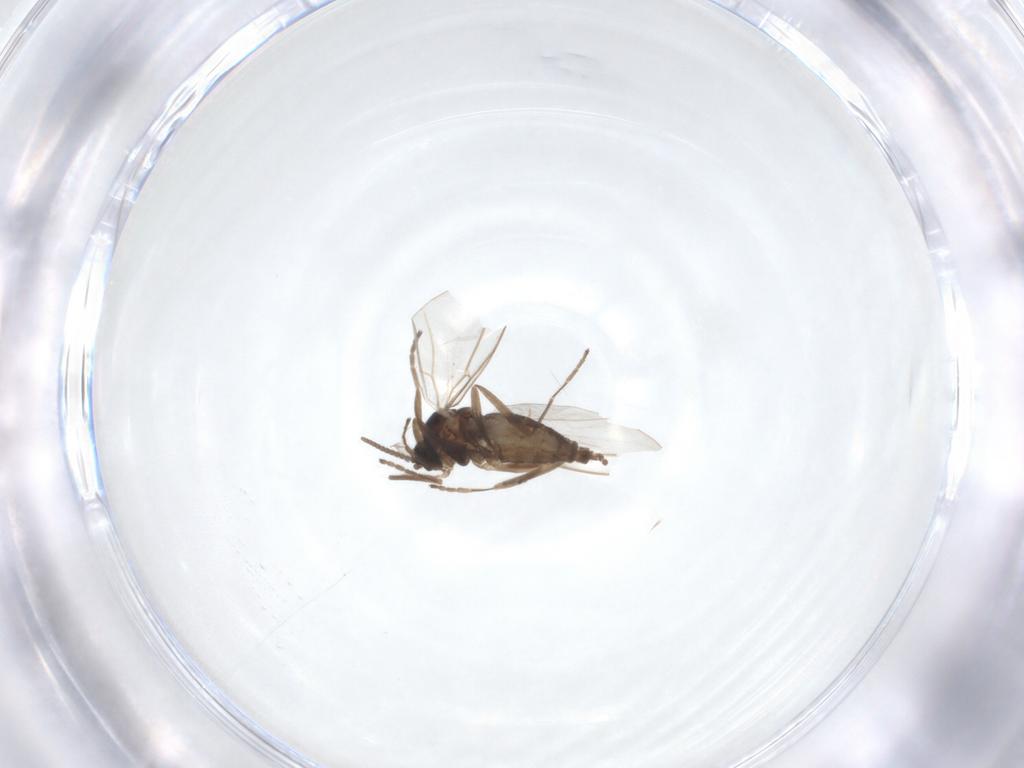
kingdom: Animalia
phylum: Arthropoda
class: Insecta
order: Diptera
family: Cecidomyiidae
